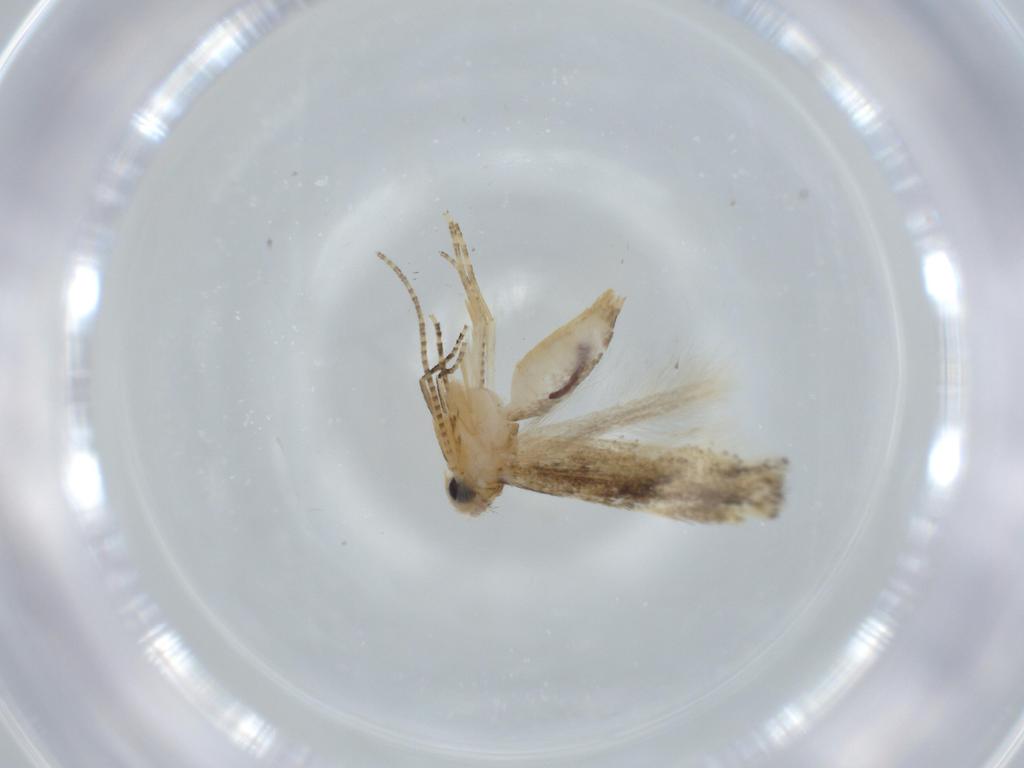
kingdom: Animalia
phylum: Arthropoda
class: Insecta
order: Lepidoptera
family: Bucculatricidae
